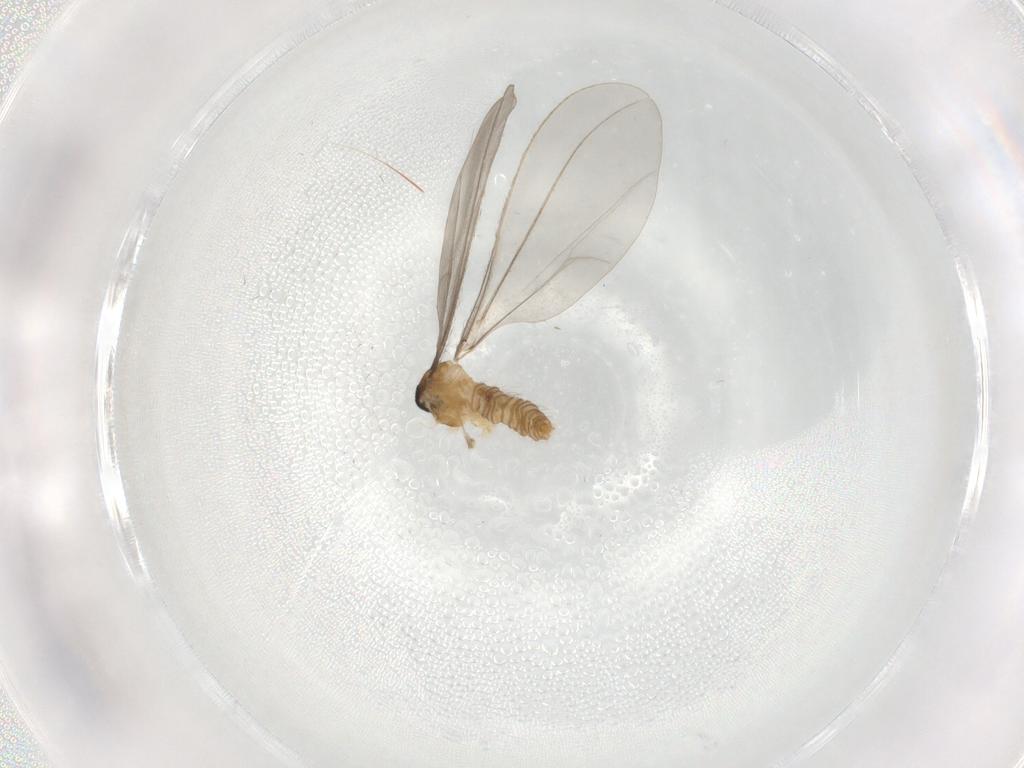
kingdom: Animalia
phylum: Arthropoda
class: Insecta
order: Diptera
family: Cecidomyiidae
